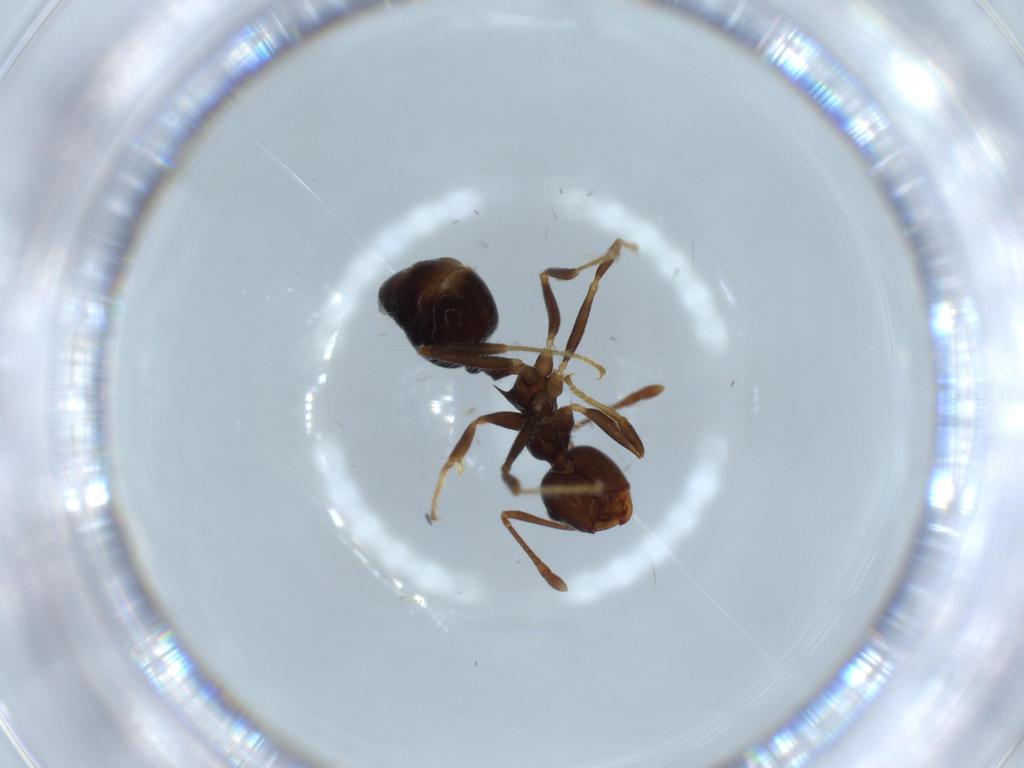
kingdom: Animalia
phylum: Arthropoda
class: Insecta
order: Hymenoptera
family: Formicidae
